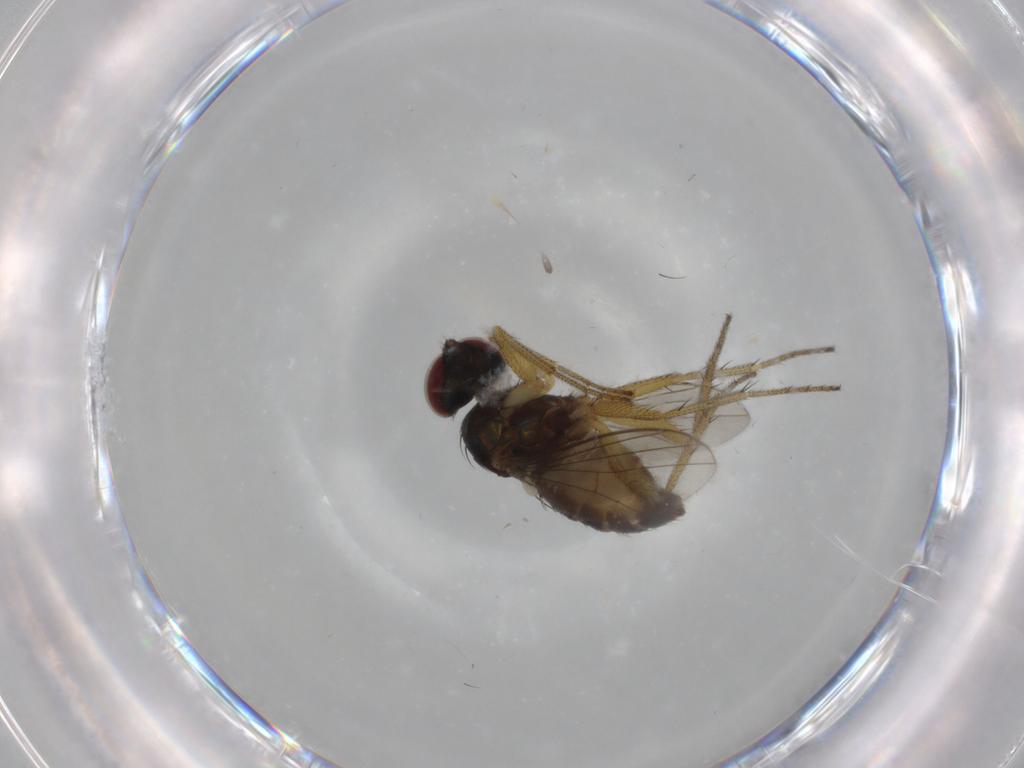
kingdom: Animalia
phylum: Arthropoda
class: Insecta
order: Diptera
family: Dolichopodidae
